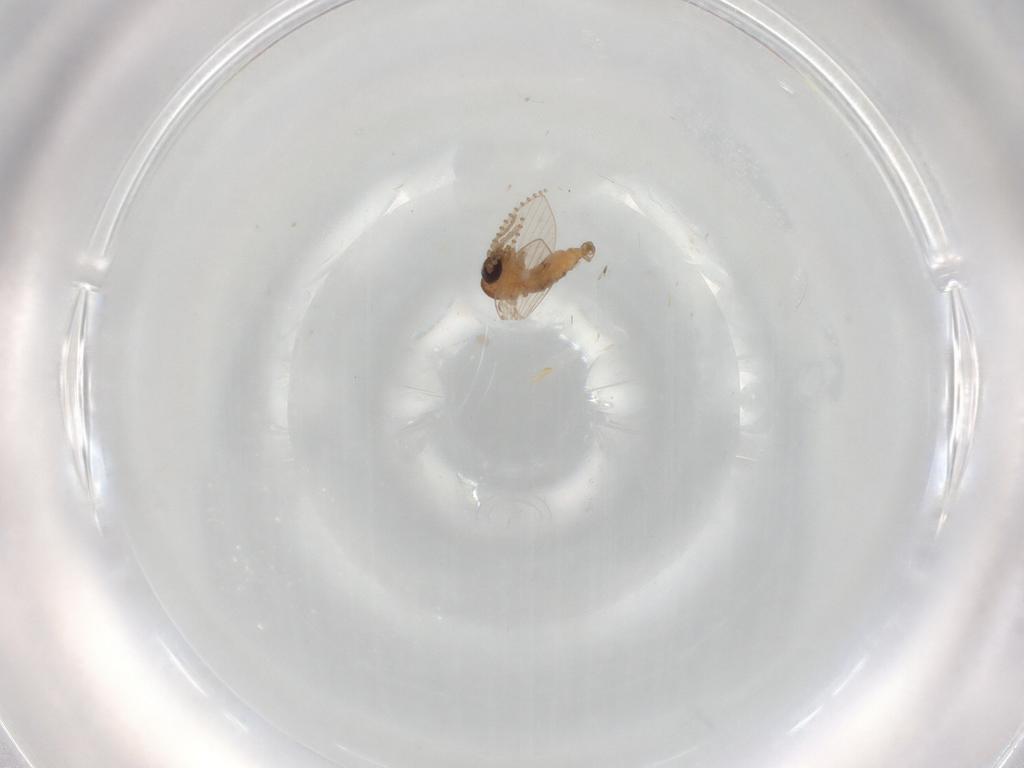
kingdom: Animalia
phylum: Arthropoda
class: Insecta
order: Diptera
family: Psychodidae
